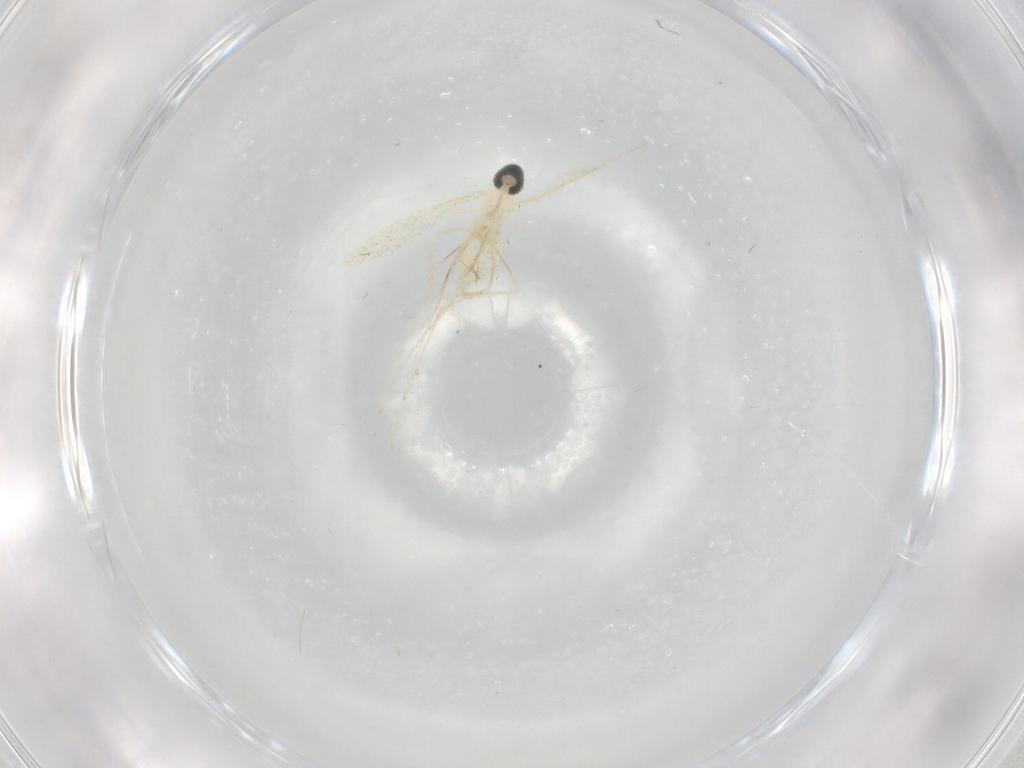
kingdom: Animalia
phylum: Arthropoda
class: Insecta
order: Diptera
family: Cecidomyiidae
